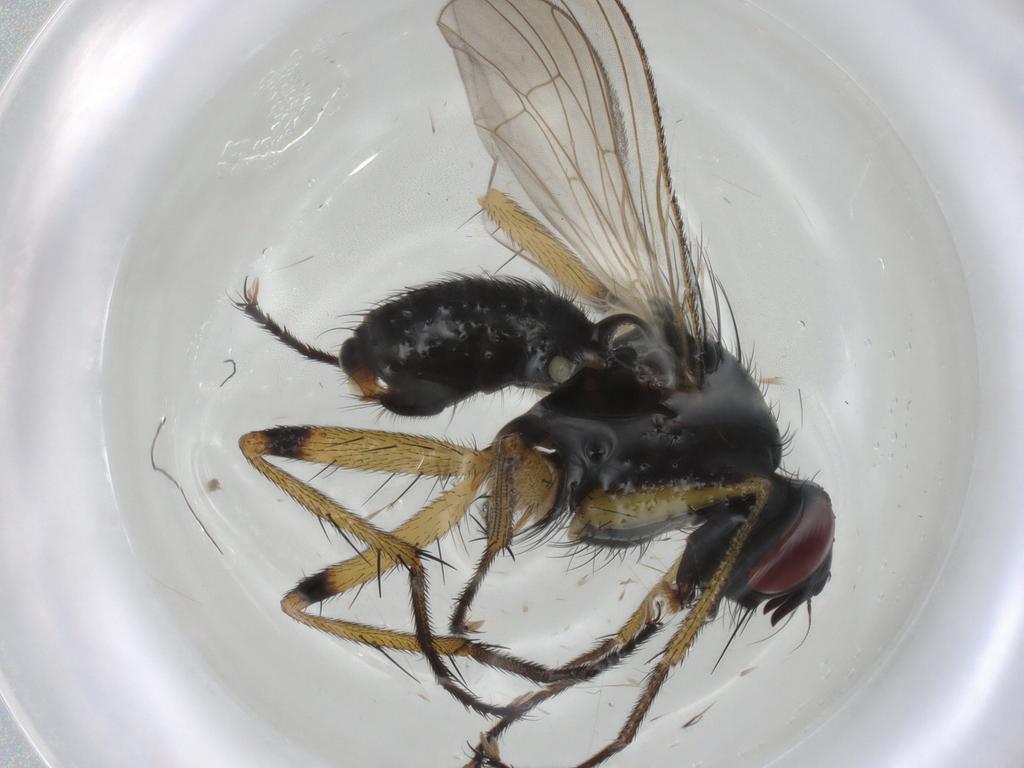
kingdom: Animalia
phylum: Arthropoda
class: Insecta
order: Diptera
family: Muscidae
